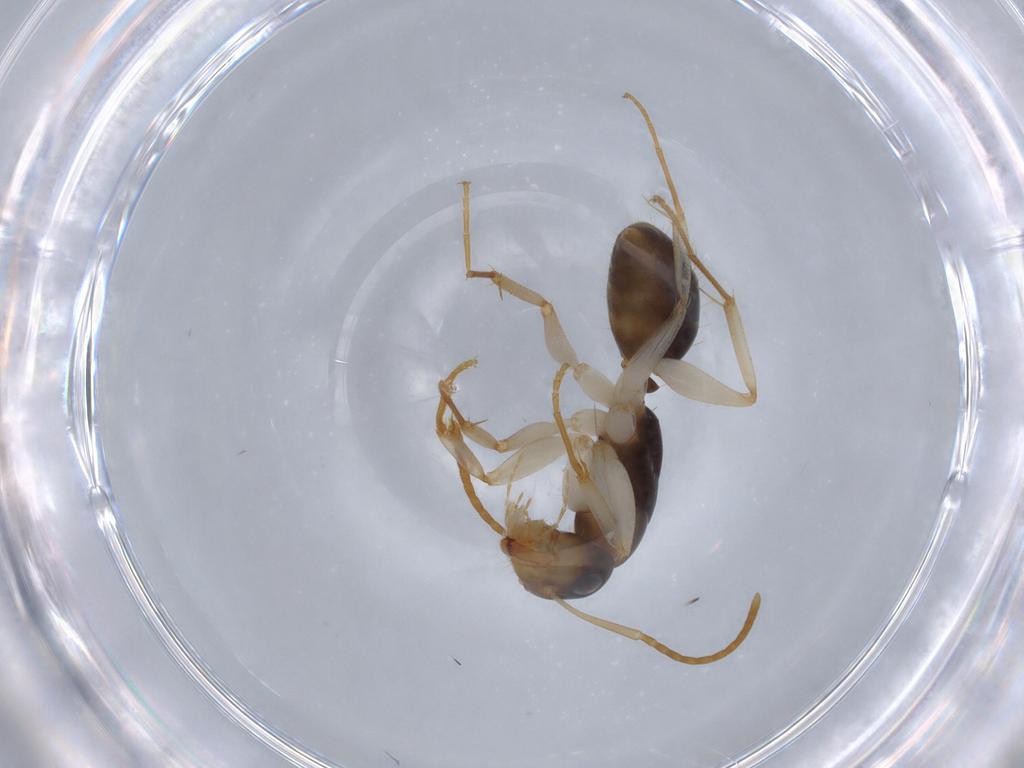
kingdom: Animalia
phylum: Arthropoda
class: Insecta
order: Hymenoptera
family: Formicidae
